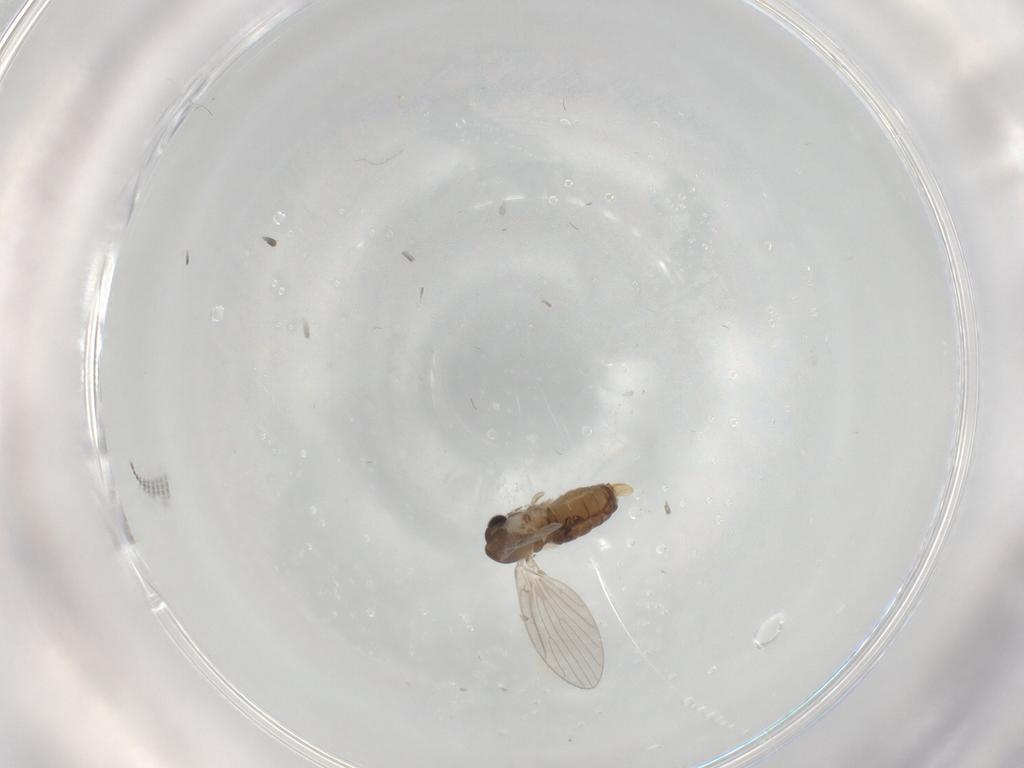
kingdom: Animalia
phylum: Arthropoda
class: Insecta
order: Diptera
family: Cecidomyiidae
